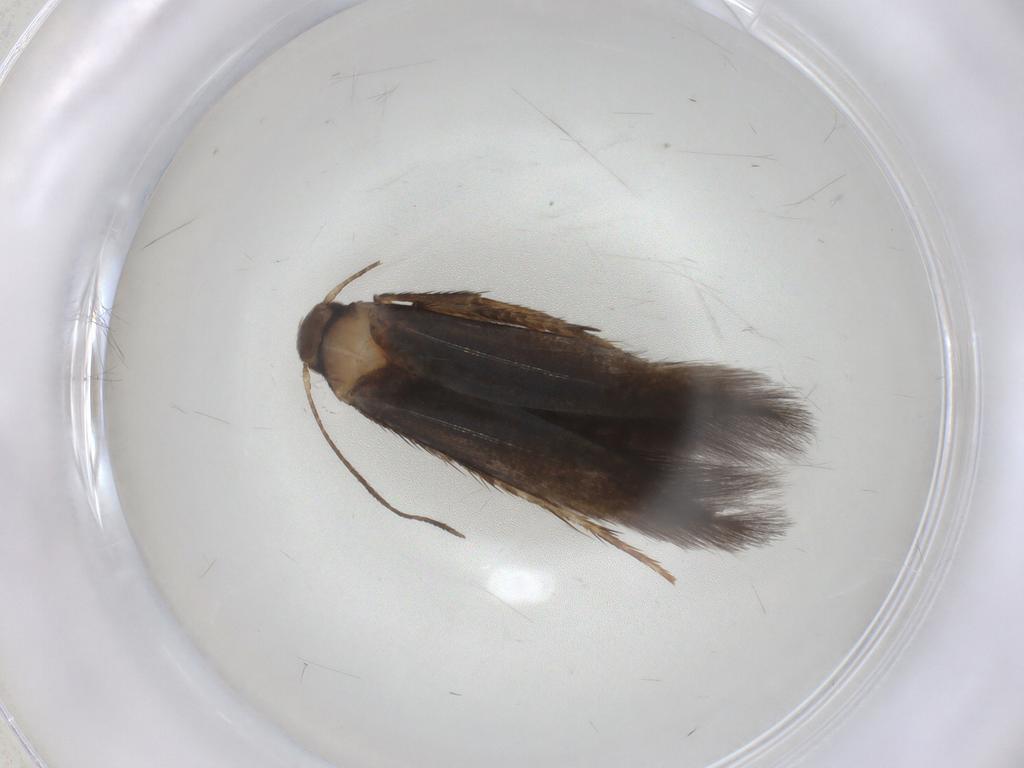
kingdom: Animalia
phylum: Arthropoda
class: Insecta
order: Lepidoptera
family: Epermeniidae
